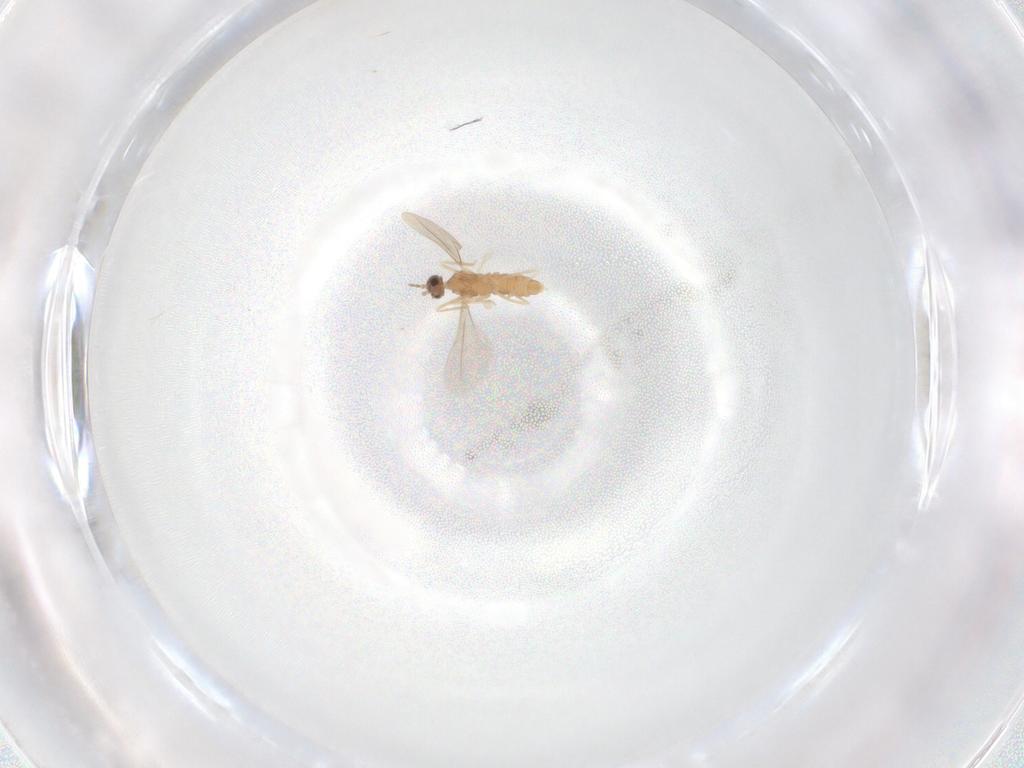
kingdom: Animalia
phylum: Arthropoda
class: Insecta
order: Diptera
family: Cecidomyiidae
